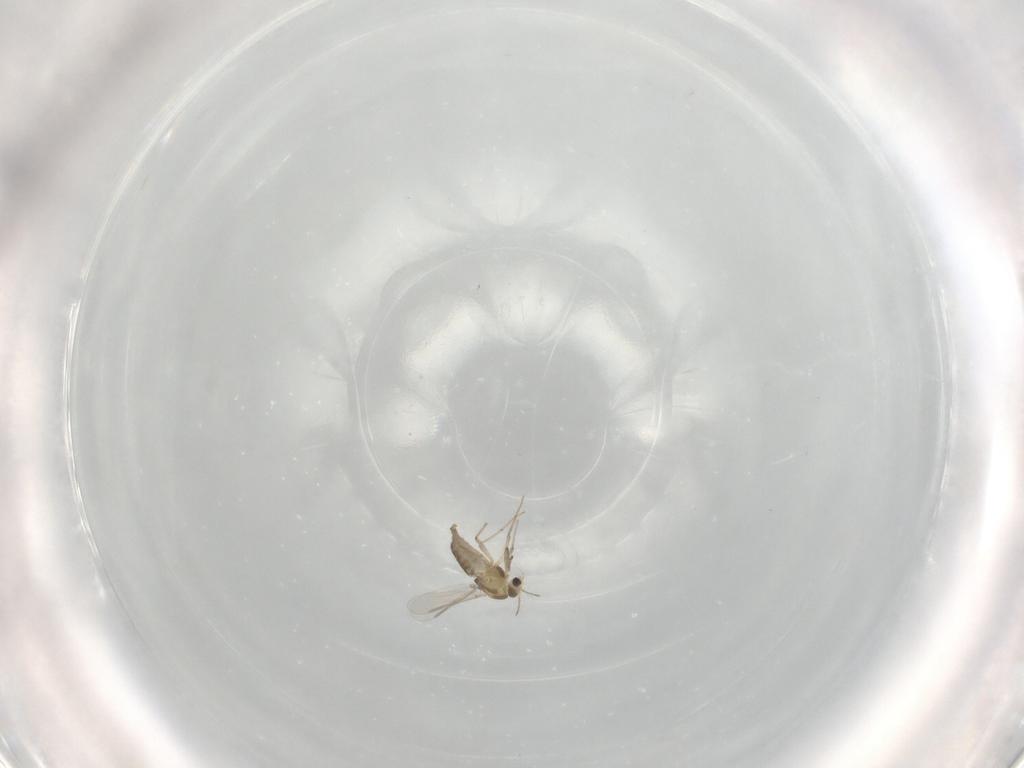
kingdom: Animalia
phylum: Arthropoda
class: Insecta
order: Diptera
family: Chironomidae
